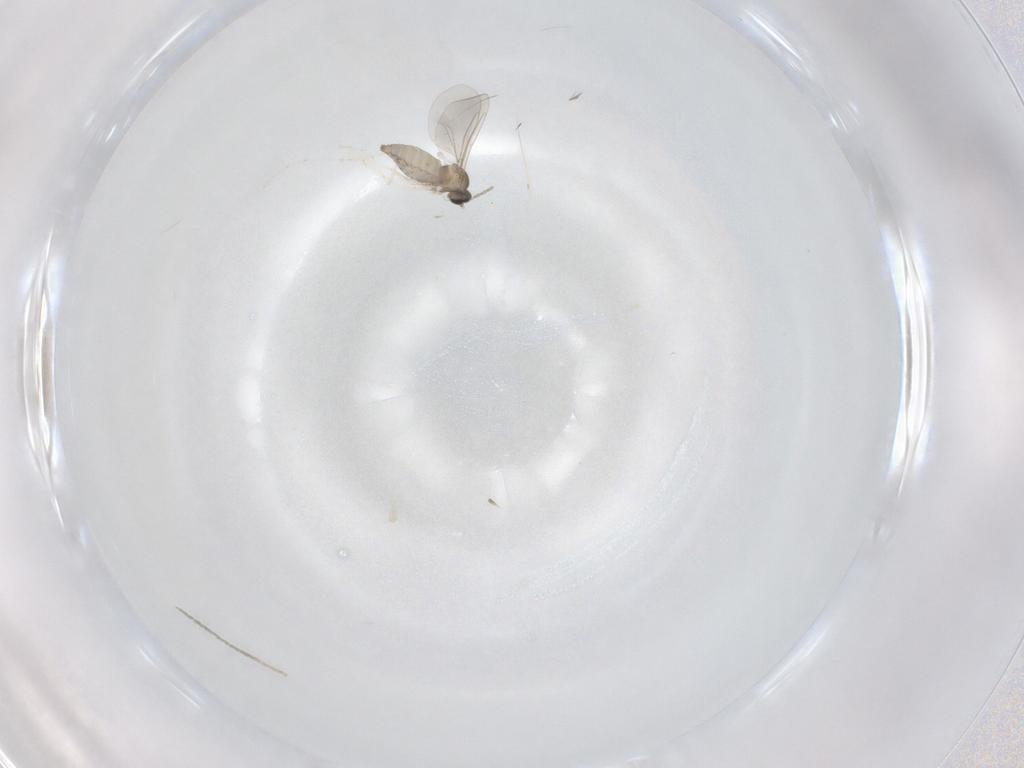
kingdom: Animalia
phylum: Arthropoda
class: Insecta
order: Diptera
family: Cecidomyiidae
